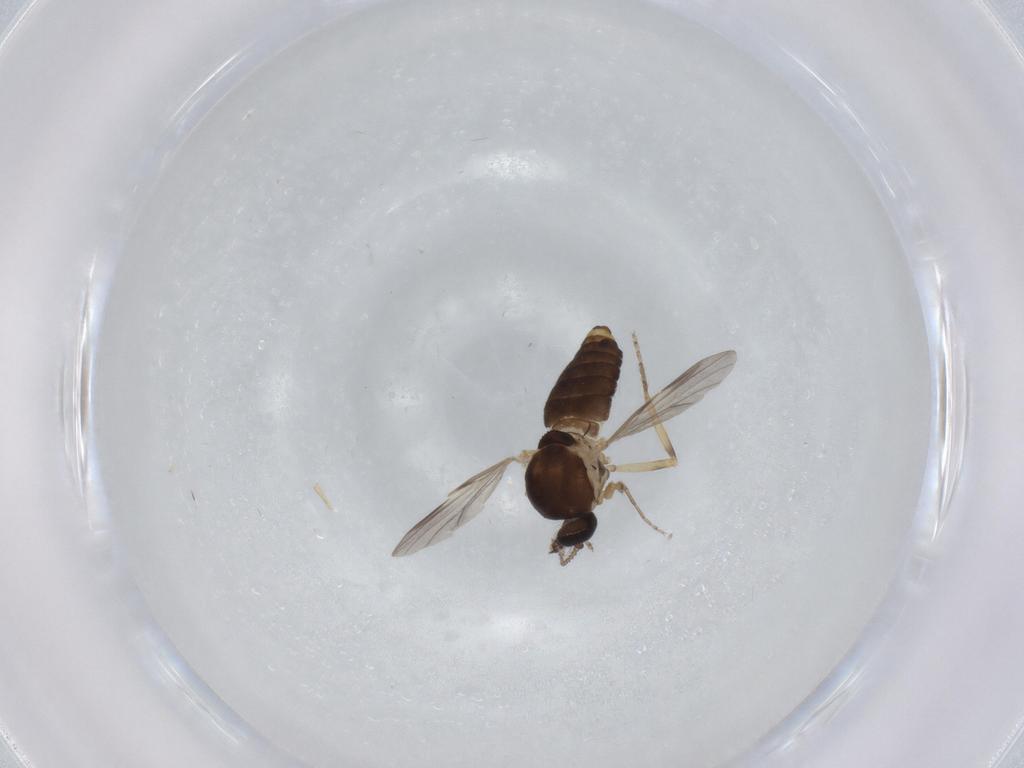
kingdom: Animalia
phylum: Arthropoda
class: Insecta
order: Diptera
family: Ceratopogonidae
